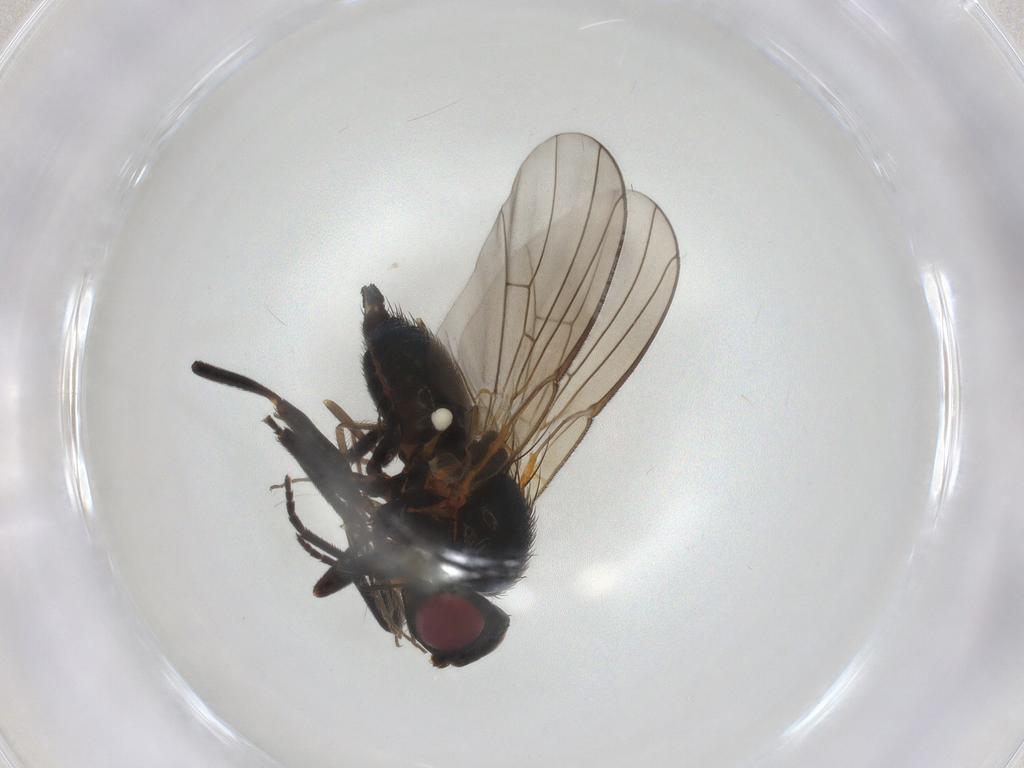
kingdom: Animalia
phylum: Arthropoda
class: Insecta
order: Diptera
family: Agromyzidae
